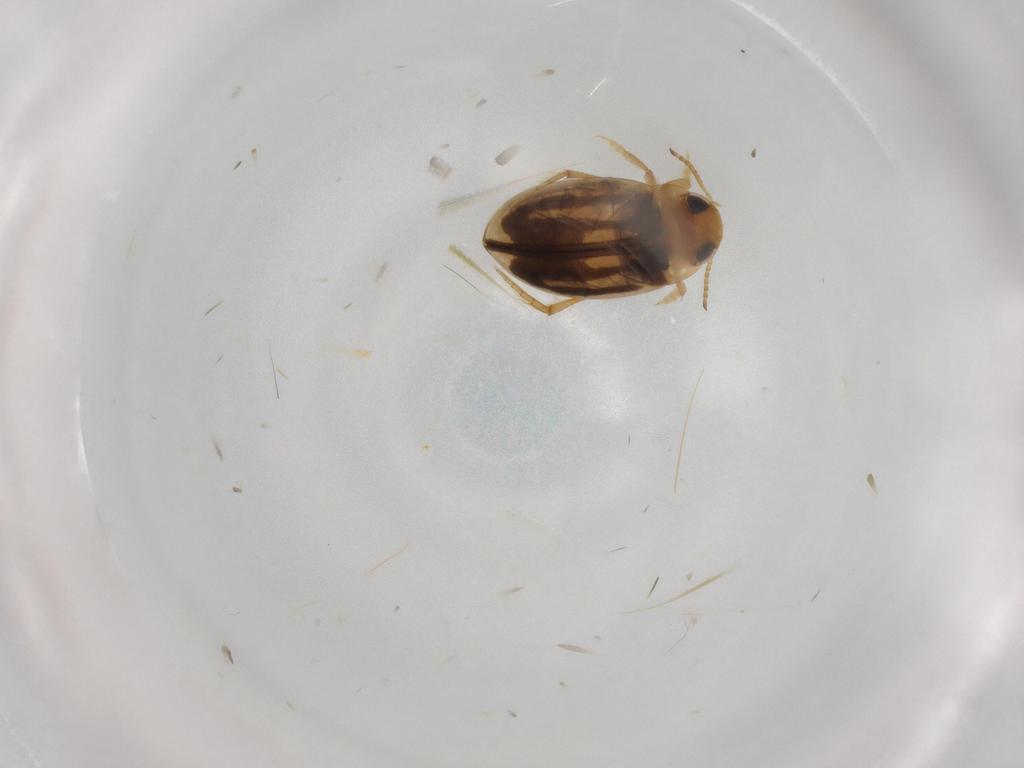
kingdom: Animalia
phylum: Arthropoda
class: Insecta
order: Coleoptera
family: Dytiscidae
